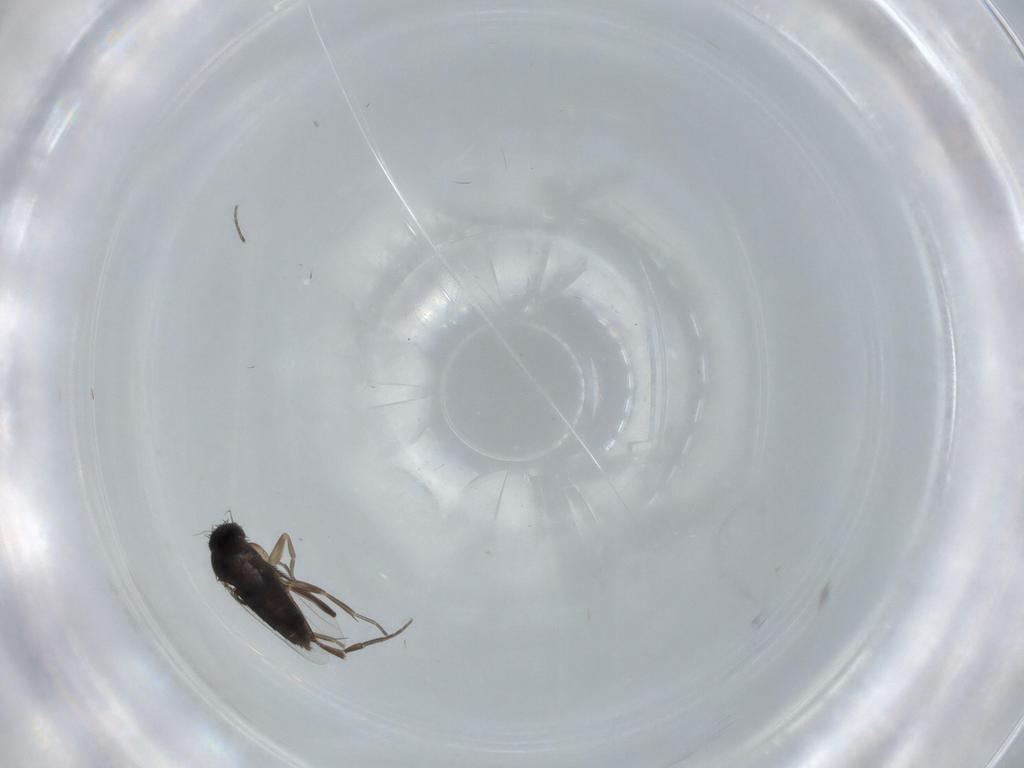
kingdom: Animalia
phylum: Arthropoda
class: Insecta
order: Diptera
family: Phoridae
